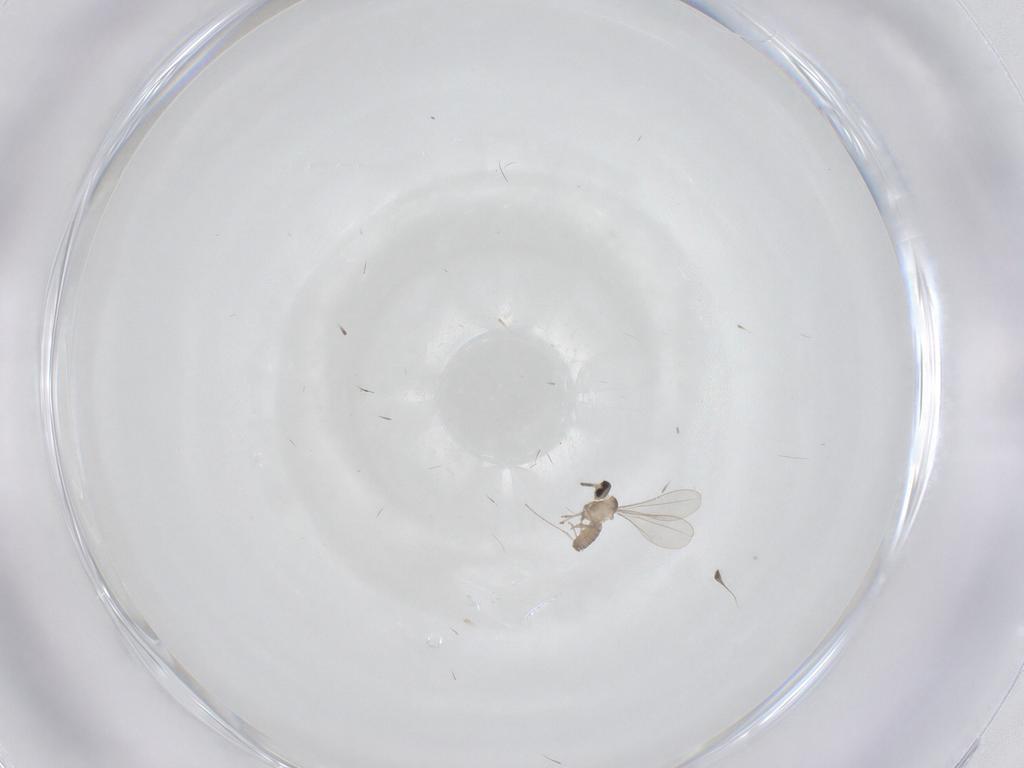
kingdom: Animalia
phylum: Arthropoda
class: Insecta
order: Diptera
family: Cecidomyiidae
